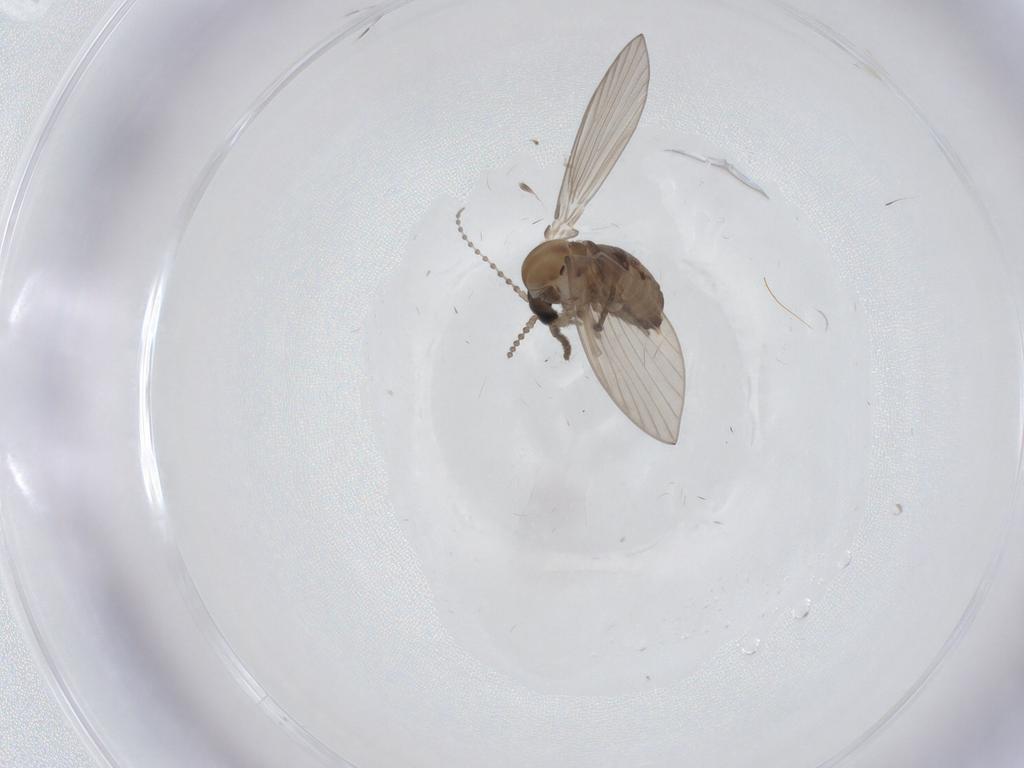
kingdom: Animalia
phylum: Arthropoda
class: Insecta
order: Diptera
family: Psychodidae
